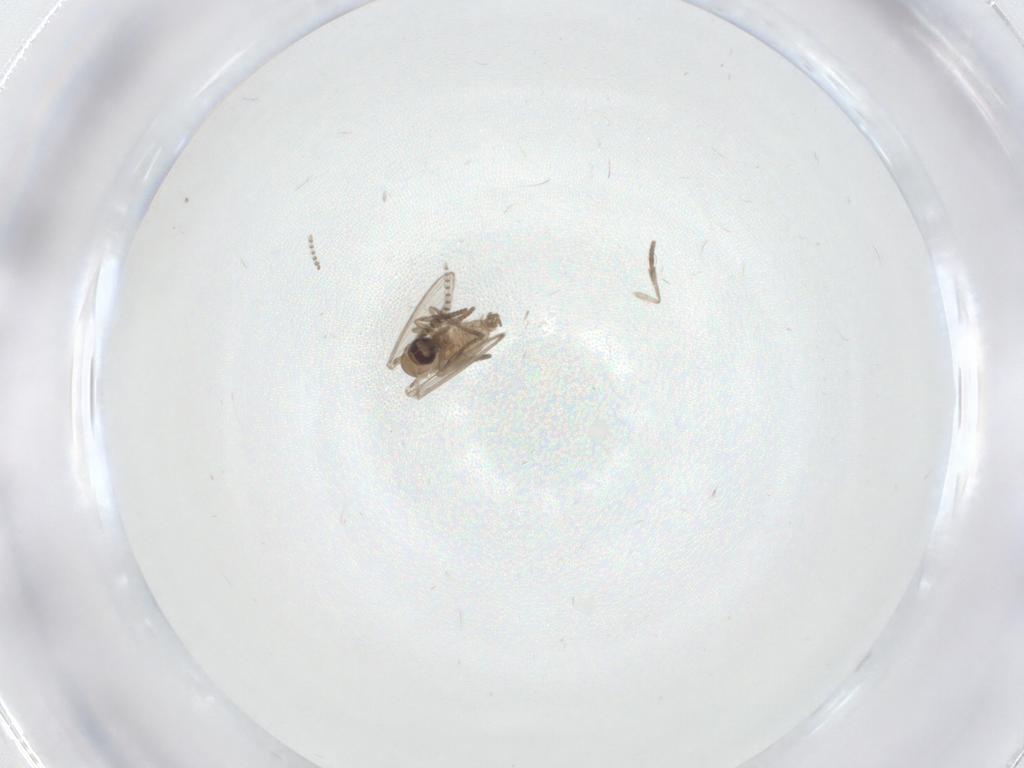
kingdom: Animalia
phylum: Arthropoda
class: Insecta
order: Diptera
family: Psychodidae
